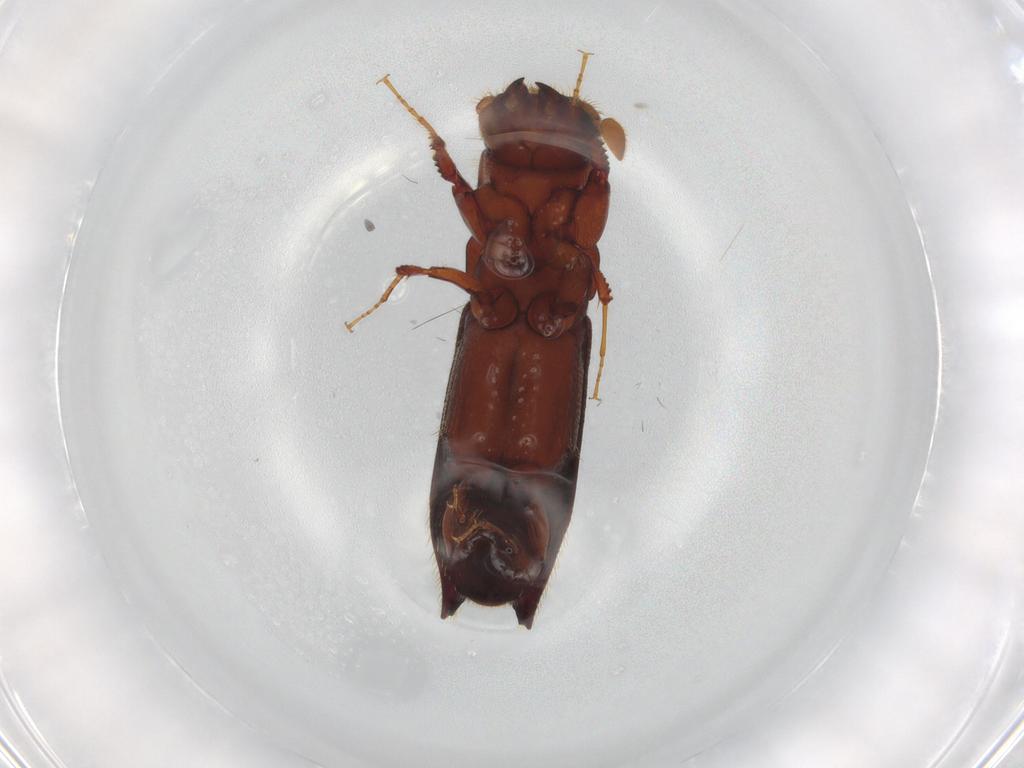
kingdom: Animalia
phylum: Arthropoda
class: Insecta
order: Coleoptera
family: Curculionidae
